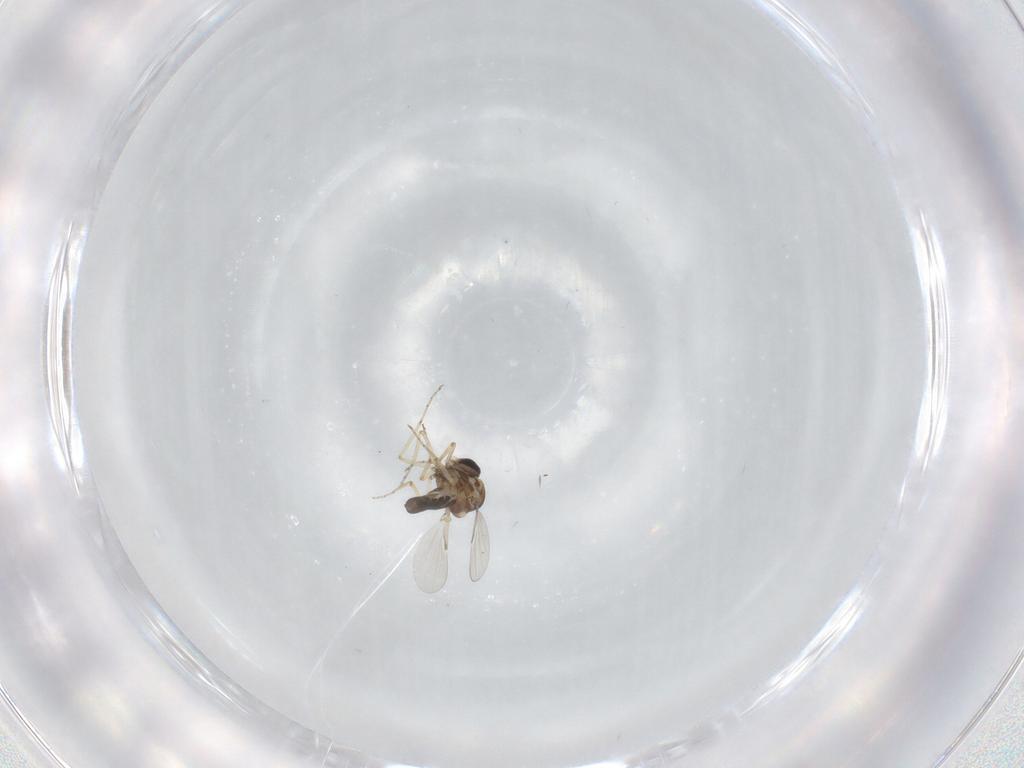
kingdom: Animalia
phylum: Arthropoda
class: Insecta
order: Diptera
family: Ceratopogonidae
